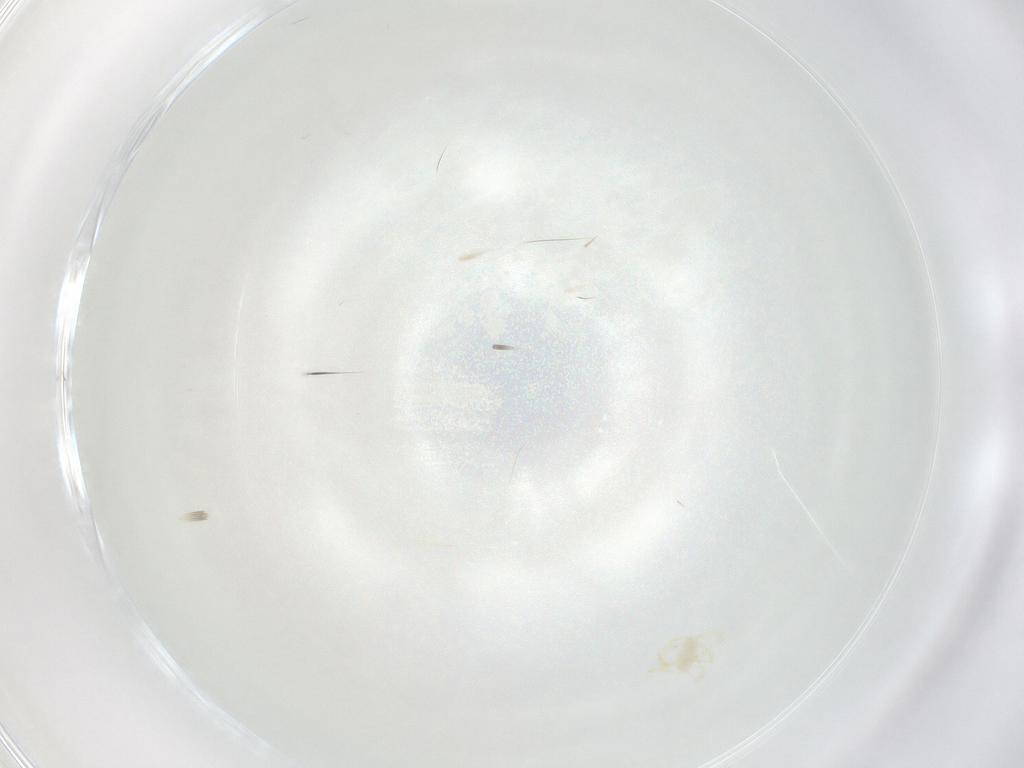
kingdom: Animalia
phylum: Arthropoda
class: Arachnida
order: Trombidiformes
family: Erythraeidae
